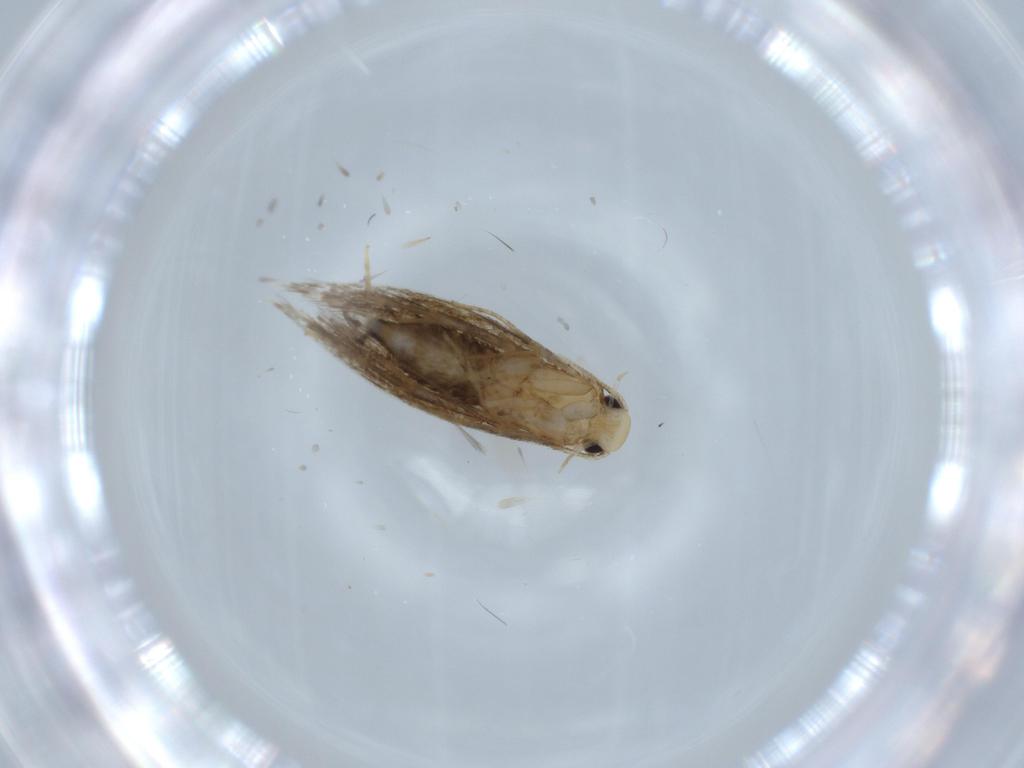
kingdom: Animalia
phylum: Arthropoda
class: Insecta
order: Lepidoptera
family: Tineidae
